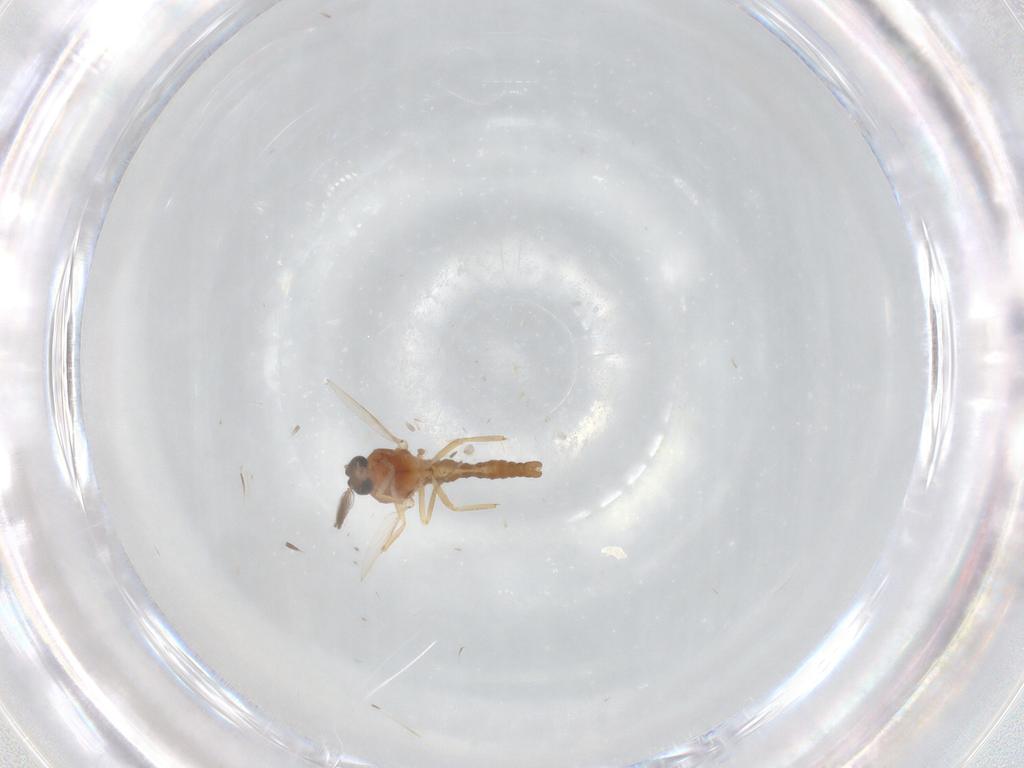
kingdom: Animalia
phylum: Arthropoda
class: Insecta
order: Diptera
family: Ceratopogonidae
